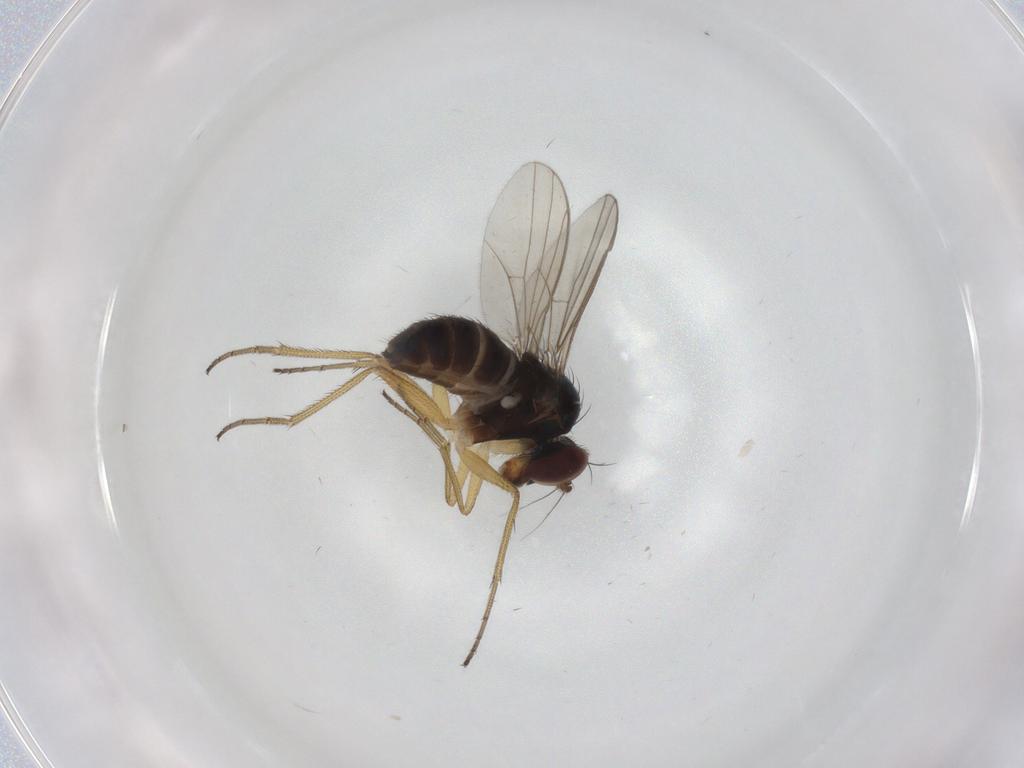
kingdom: Animalia
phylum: Arthropoda
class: Insecta
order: Diptera
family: Dolichopodidae
